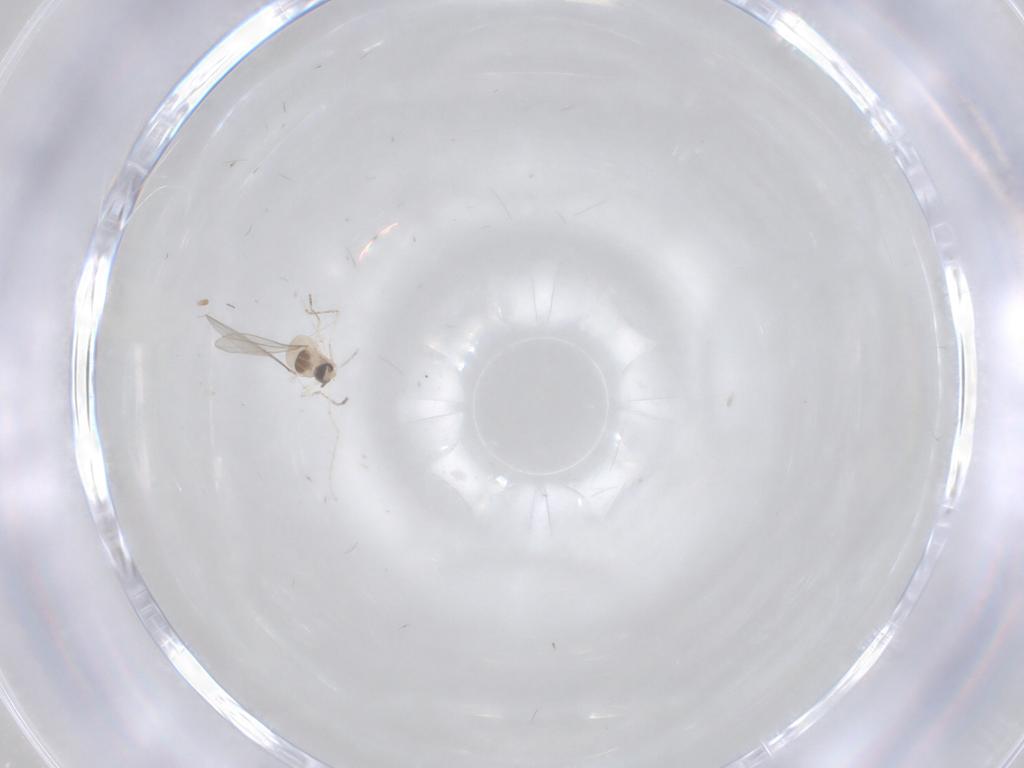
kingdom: Animalia
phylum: Arthropoda
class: Insecta
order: Diptera
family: Cecidomyiidae
